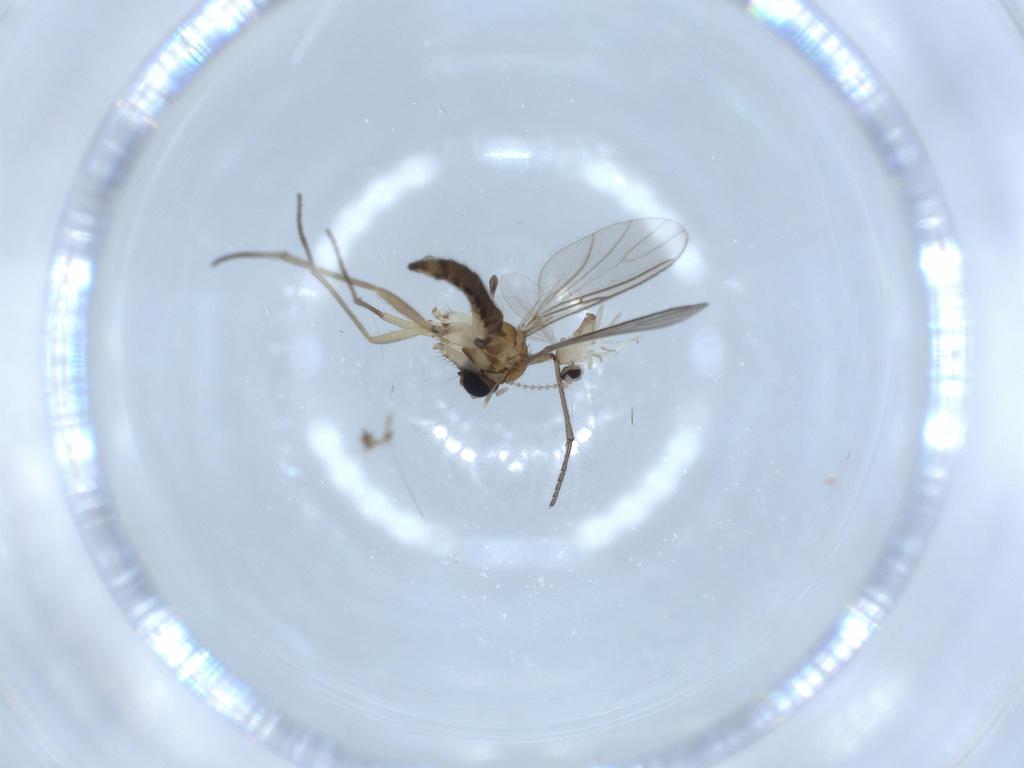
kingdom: Animalia
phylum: Arthropoda
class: Insecta
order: Diptera
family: Sciaridae
